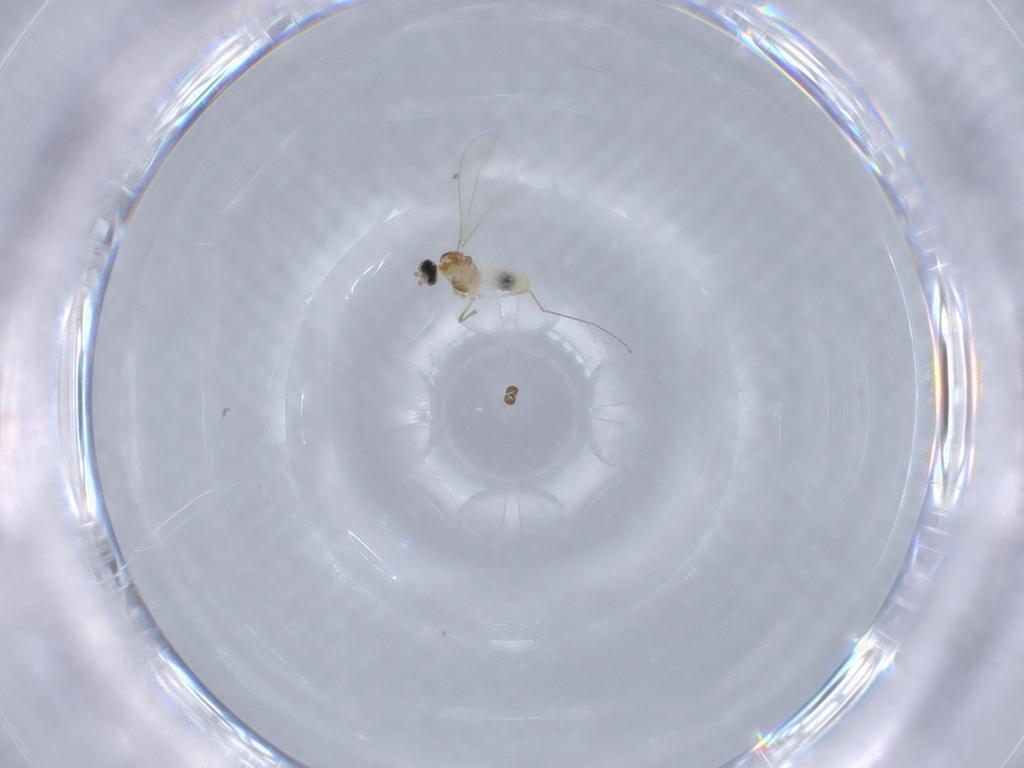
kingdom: Animalia
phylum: Arthropoda
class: Insecta
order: Diptera
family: Cecidomyiidae
